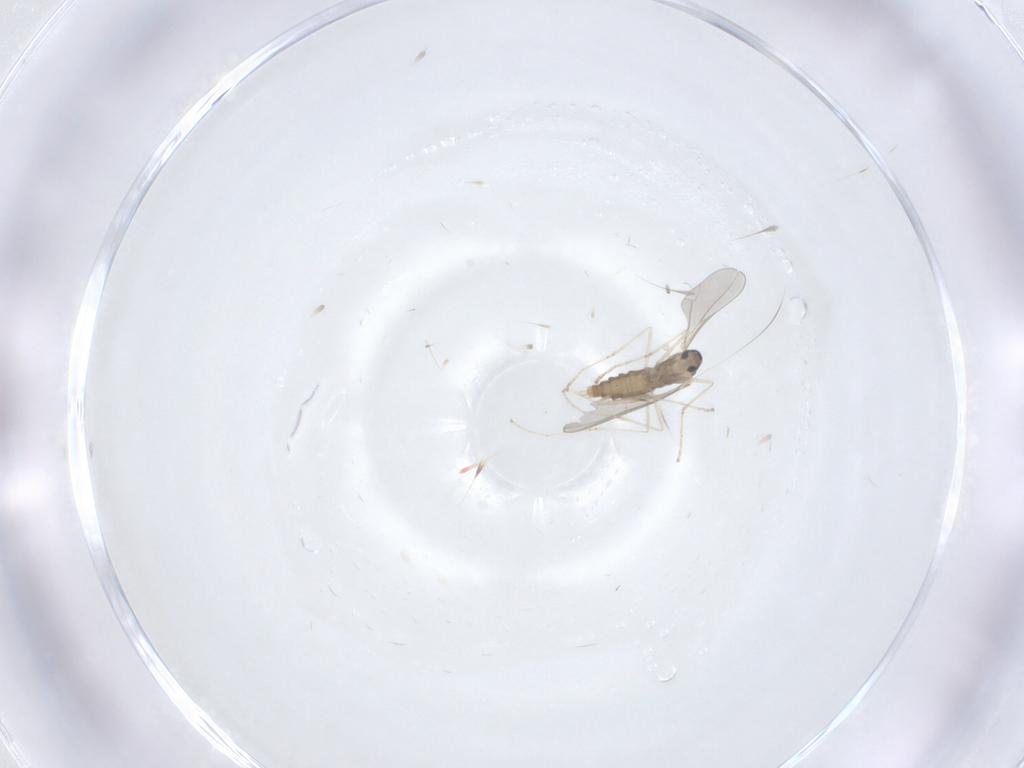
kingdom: Animalia
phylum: Arthropoda
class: Insecta
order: Diptera
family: Cecidomyiidae
